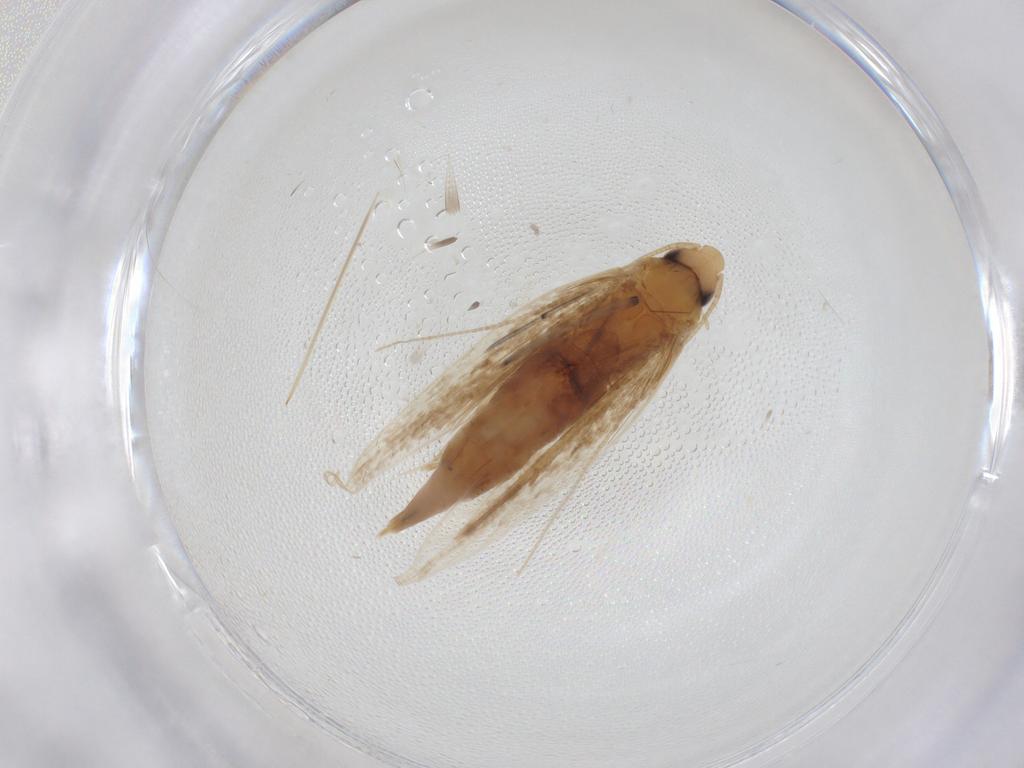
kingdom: Animalia
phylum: Arthropoda
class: Insecta
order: Lepidoptera
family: Tineidae
